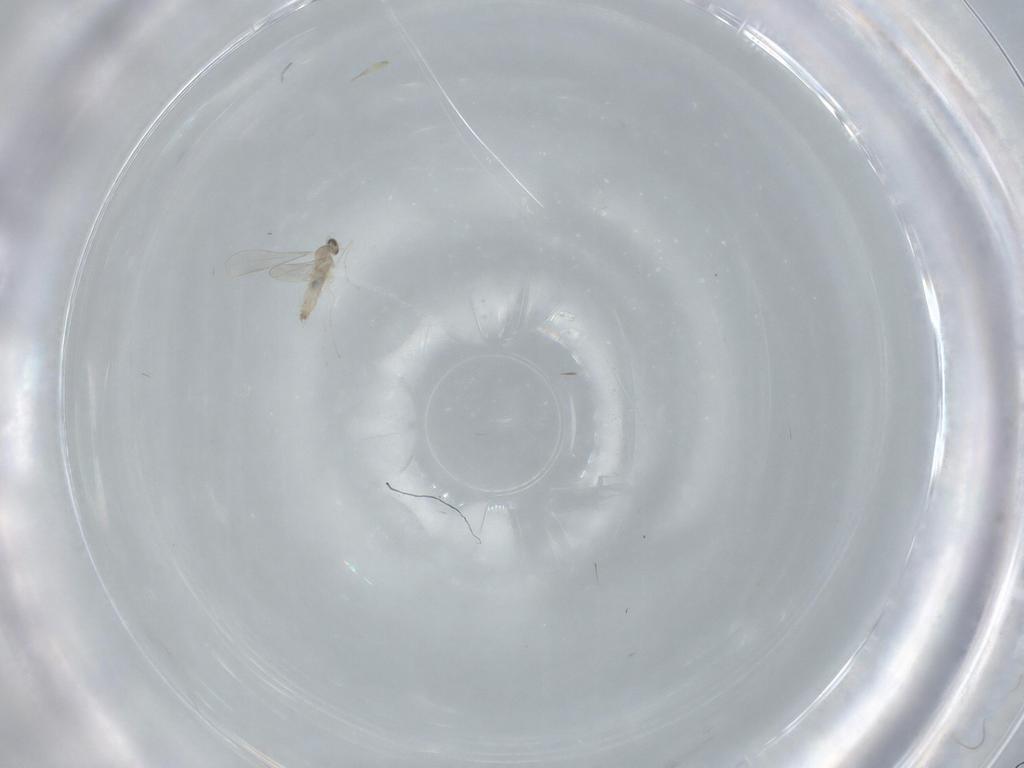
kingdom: Animalia
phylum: Arthropoda
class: Insecta
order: Diptera
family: Cecidomyiidae
